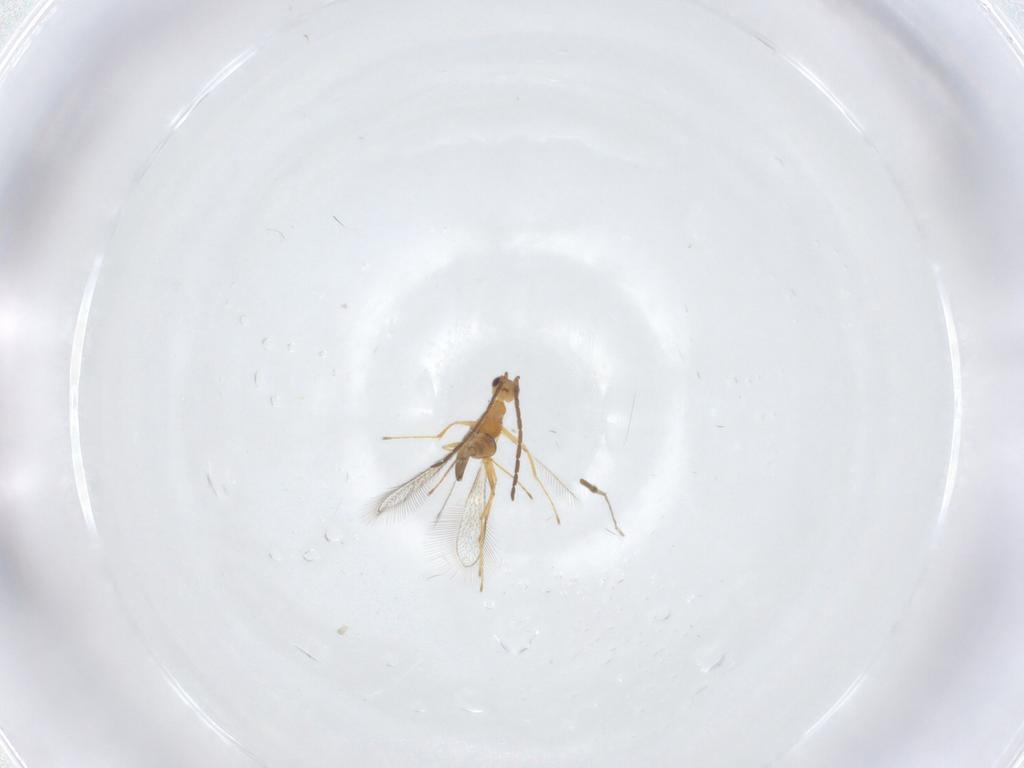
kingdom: Animalia
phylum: Arthropoda
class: Insecta
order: Hymenoptera
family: Mymaridae
